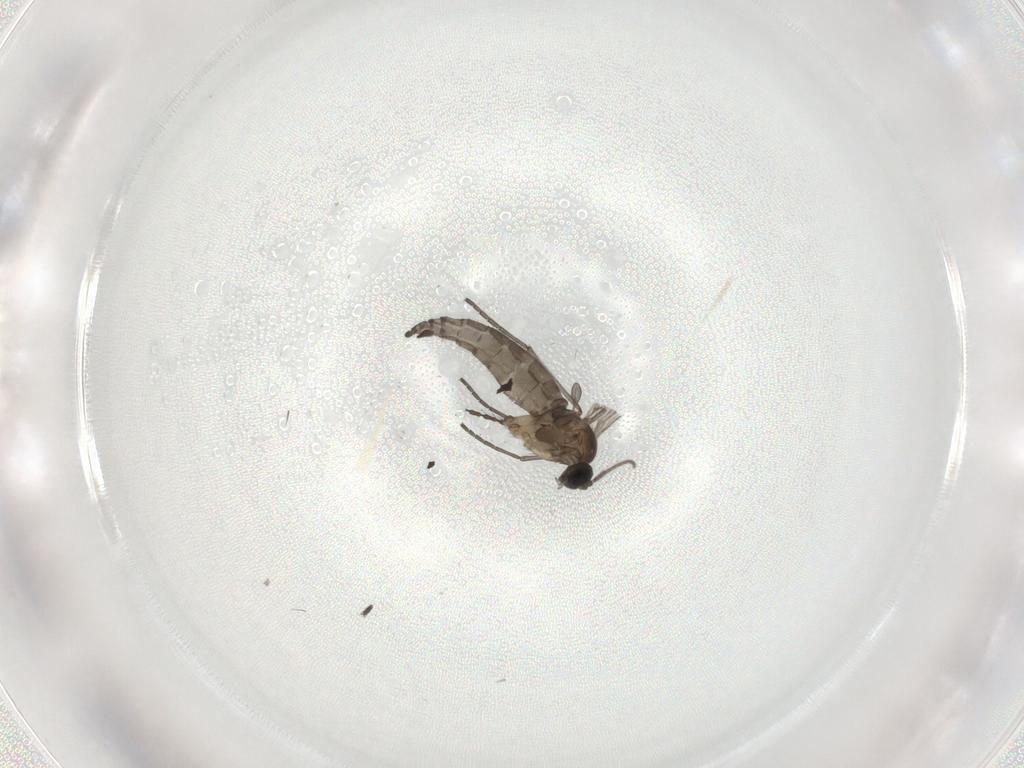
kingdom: Animalia
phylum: Arthropoda
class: Insecta
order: Diptera
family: Sciaridae
